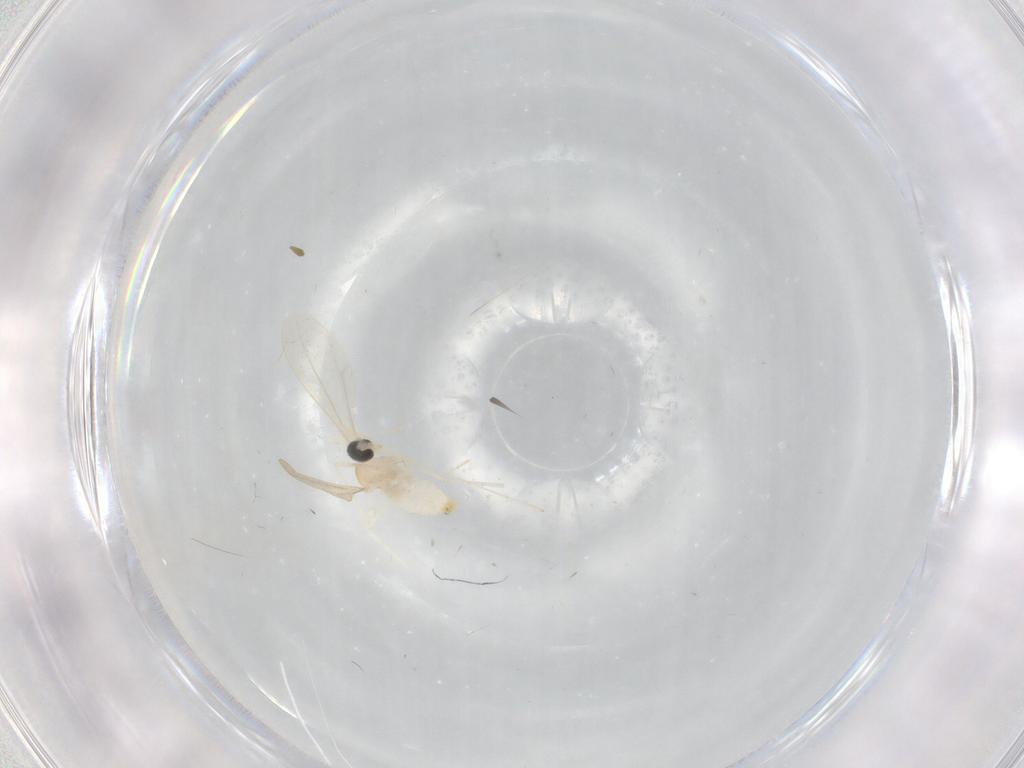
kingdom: Animalia
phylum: Arthropoda
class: Insecta
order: Diptera
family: Cecidomyiidae
